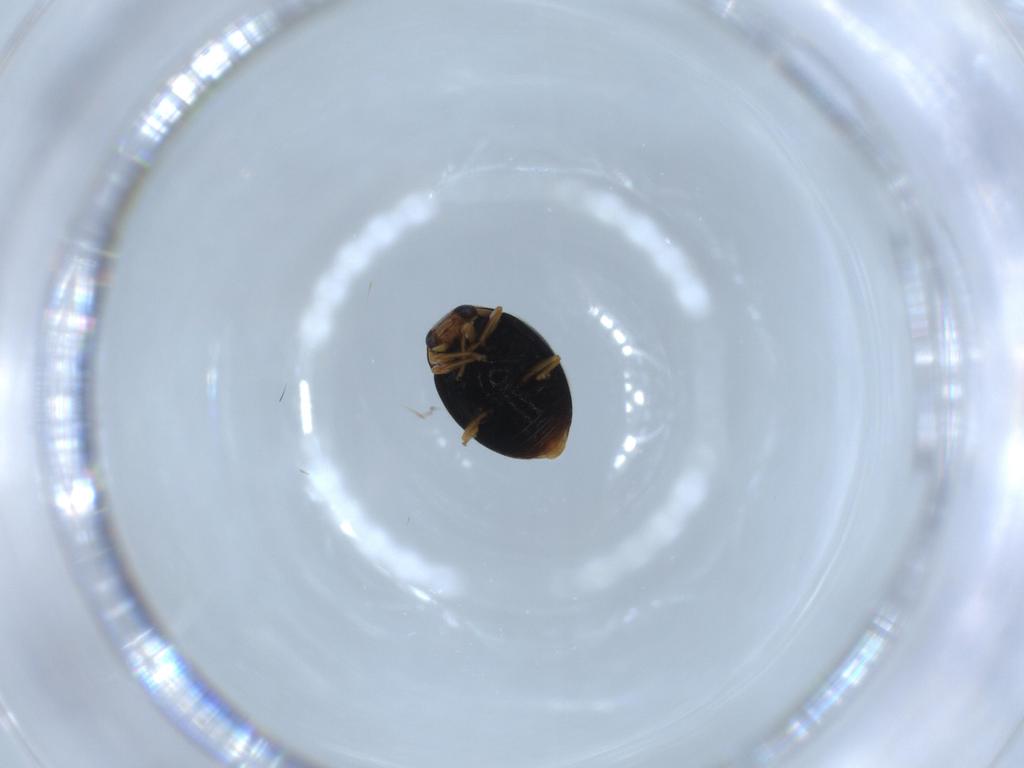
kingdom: Animalia
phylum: Arthropoda
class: Insecta
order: Coleoptera
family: Coccinellidae
